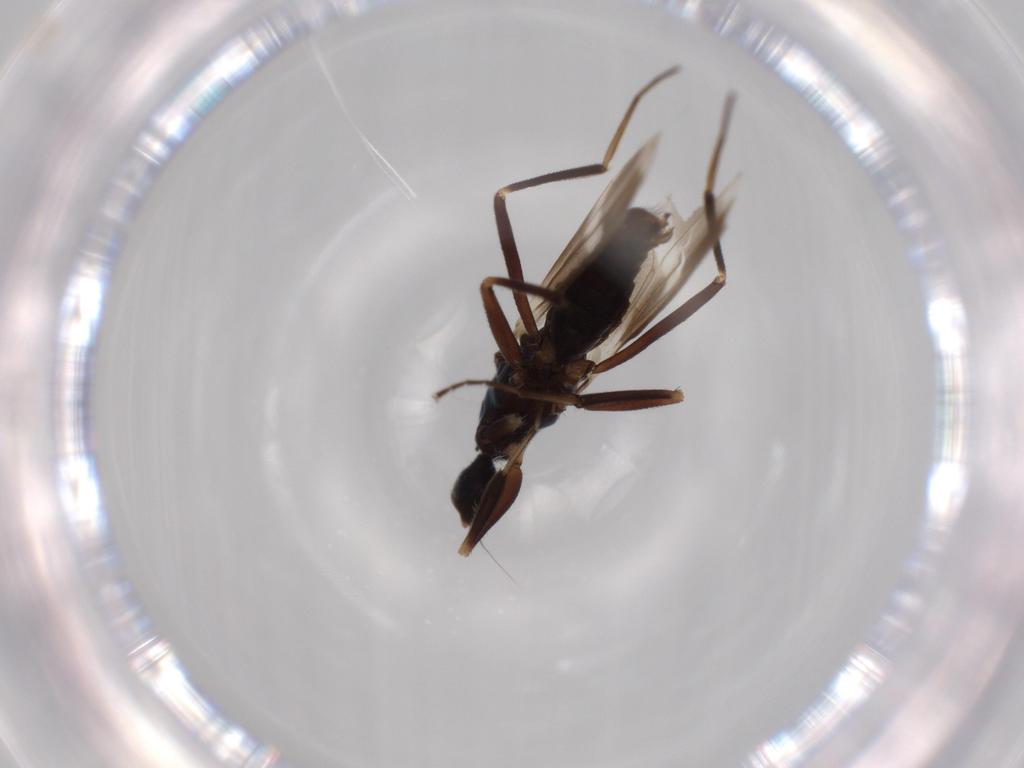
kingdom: Animalia
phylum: Arthropoda
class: Insecta
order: Diptera
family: Hybotidae
